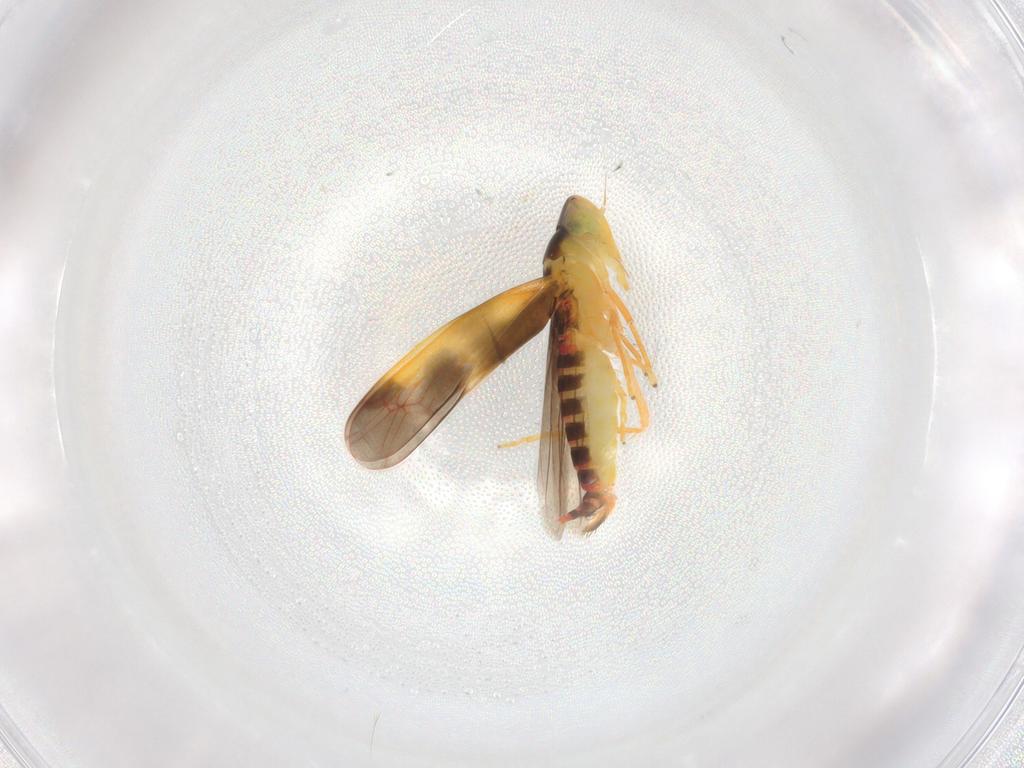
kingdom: Animalia
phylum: Arthropoda
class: Insecta
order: Hemiptera
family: Cicadellidae
